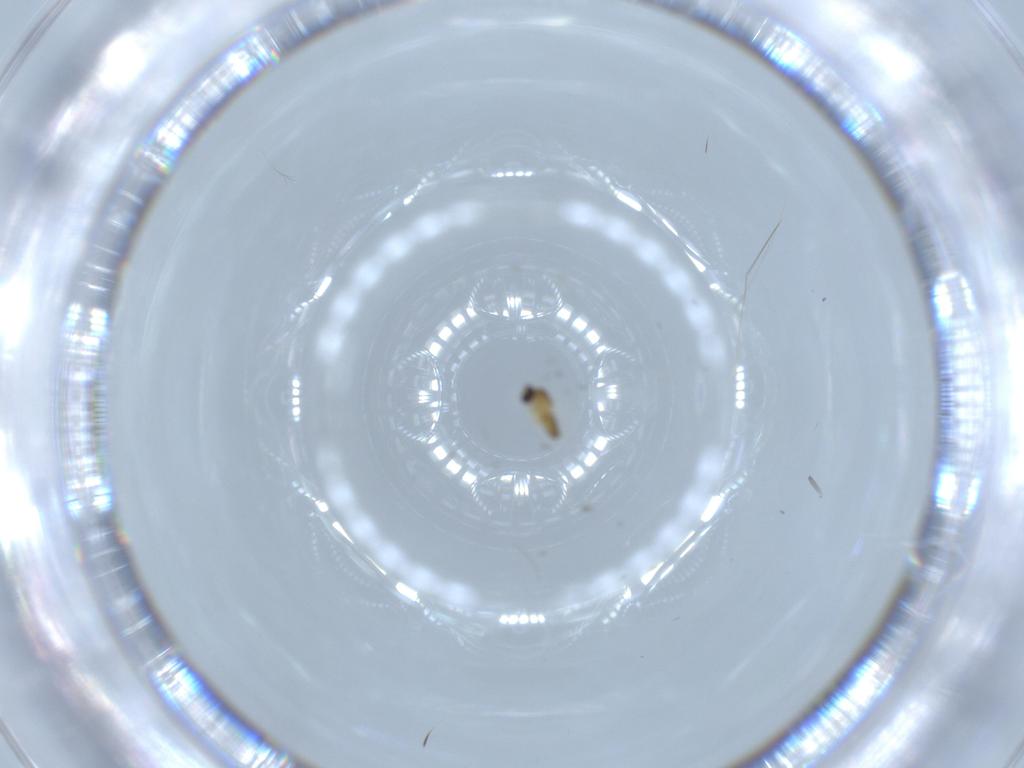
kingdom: Animalia
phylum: Arthropoda
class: Insecta
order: Diptera
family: Cecidomyiidae
